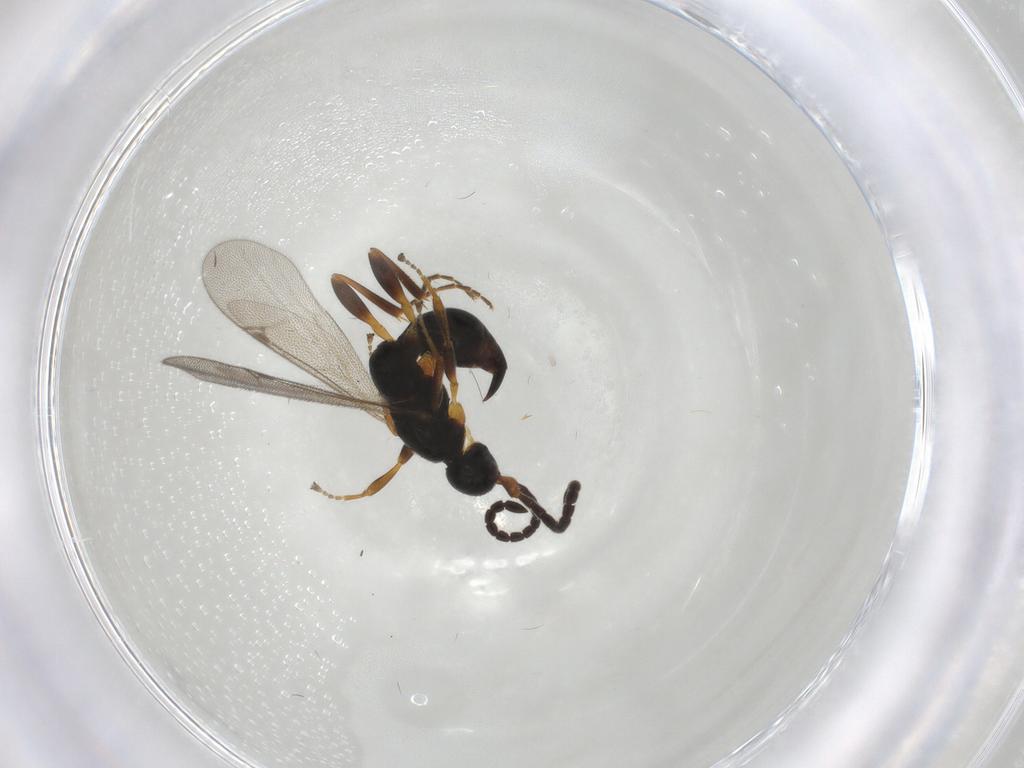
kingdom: Animalia
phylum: Arthropoda
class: Insecta
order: Hymenoptera
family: Proctotrupidae
